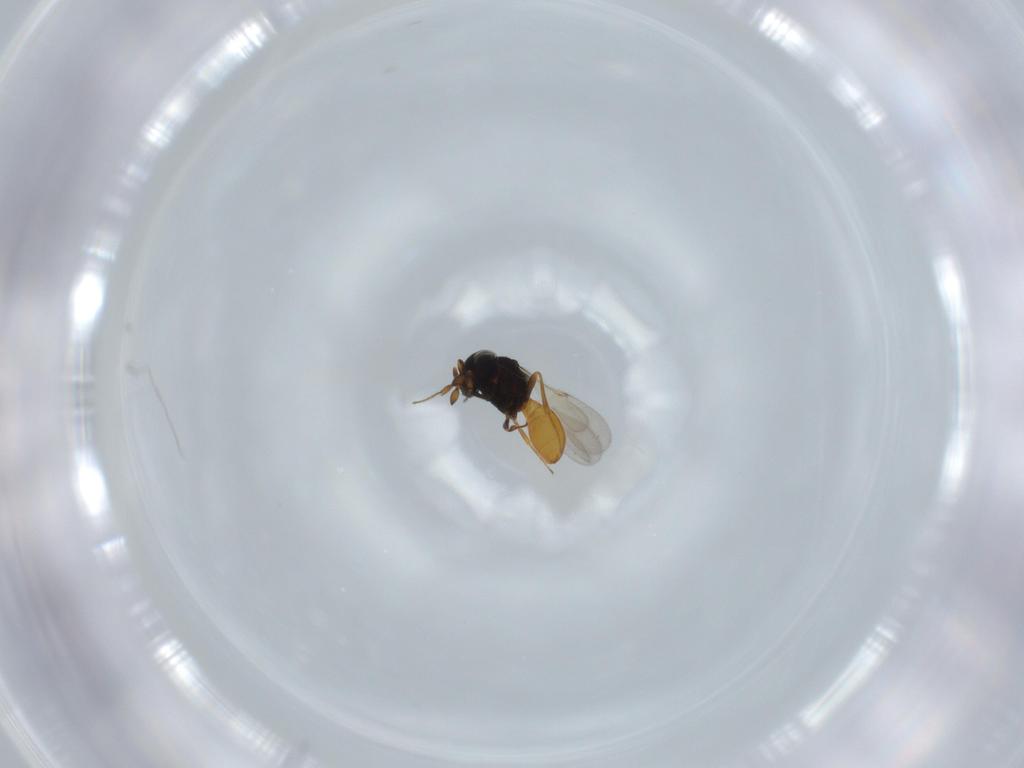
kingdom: Animalia
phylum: Arthropoda
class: Insecta
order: Hymenoptera
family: Scelionidae
